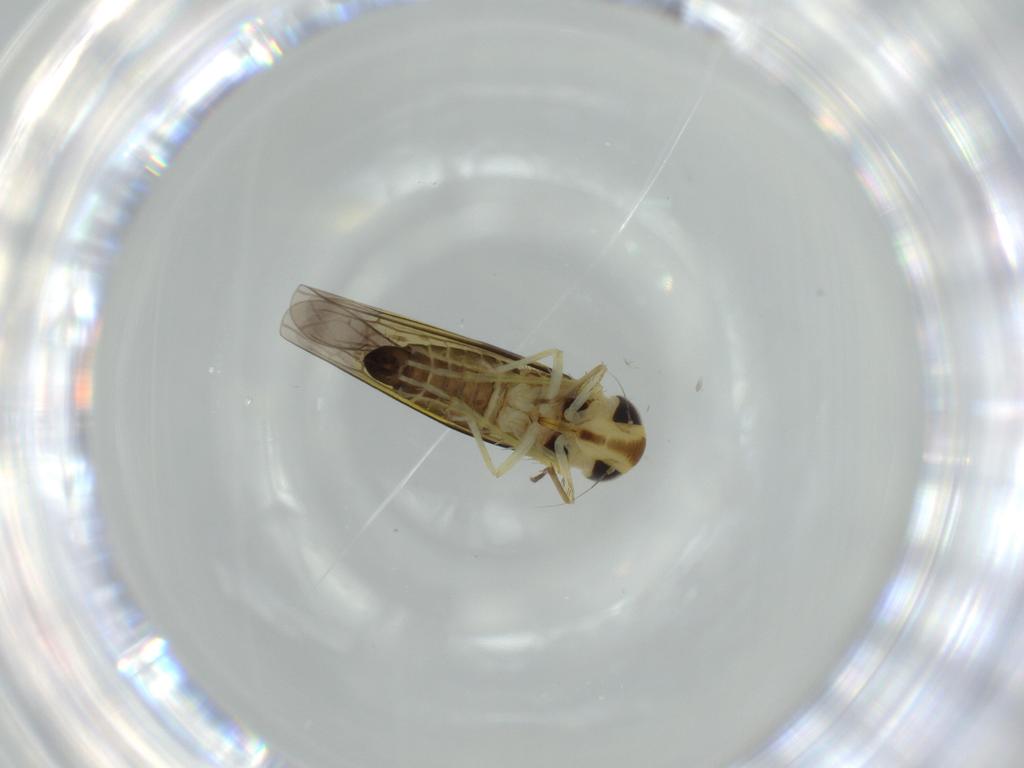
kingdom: Animalia
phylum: Arthropoda
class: Insecta
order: Hemiptera
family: Cicadellidae
